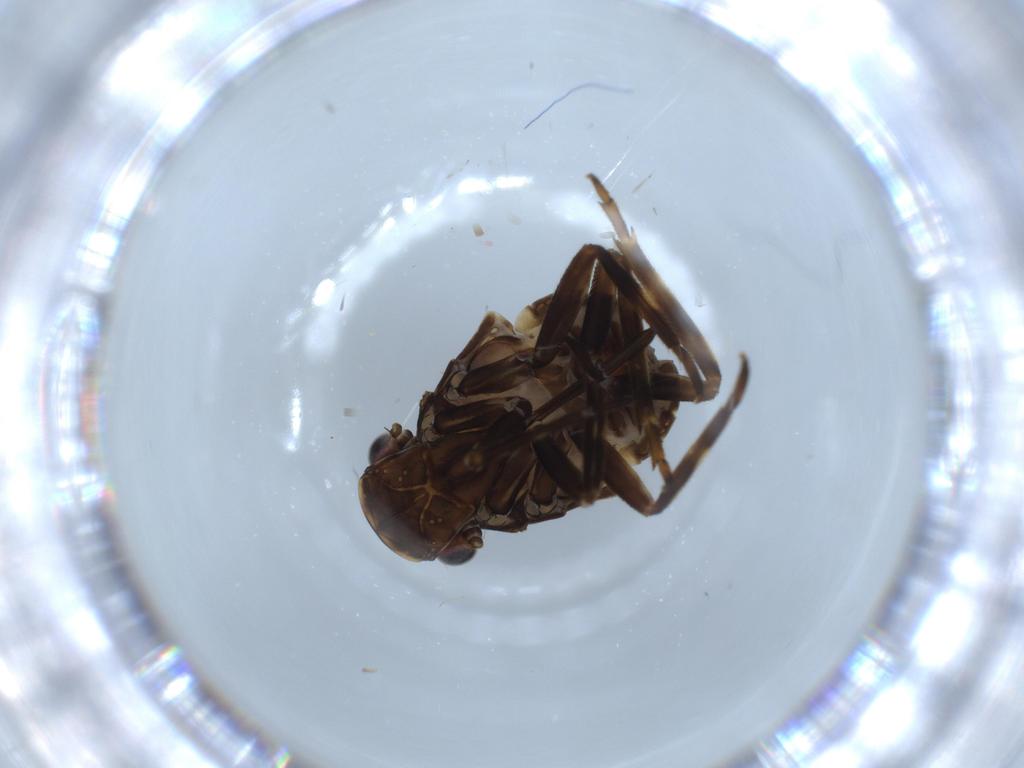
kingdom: Animalia
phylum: Arthropoda
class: Insecta
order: Hemiptera
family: Fulgoridae
